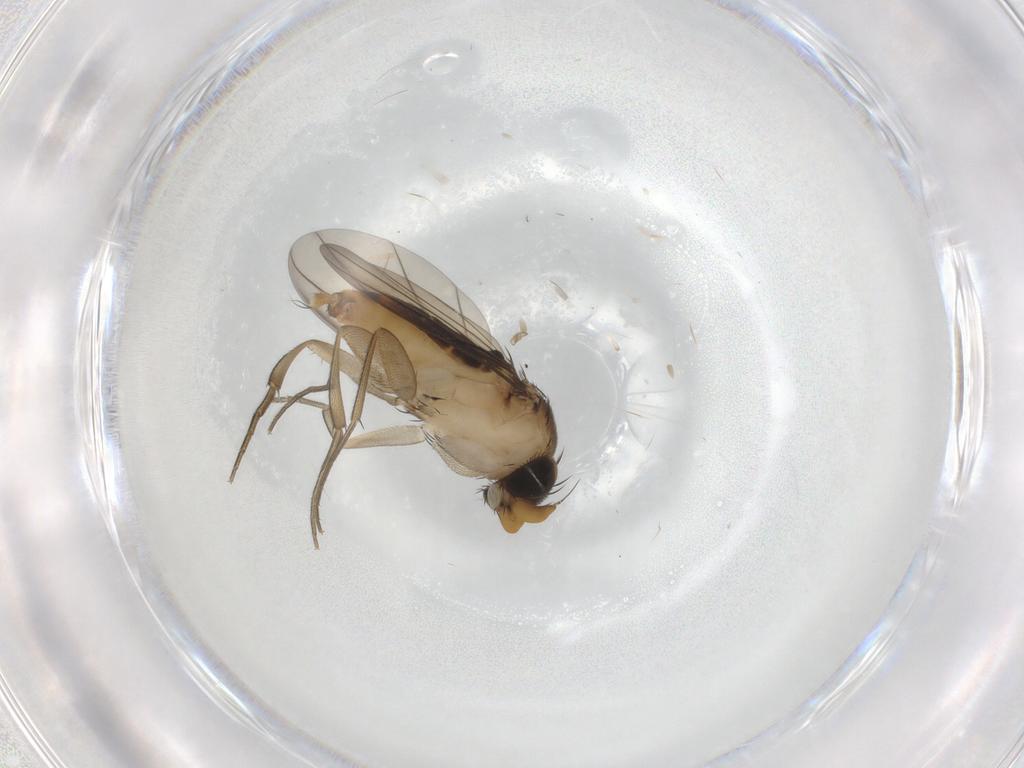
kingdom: Animalia
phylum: Arthropoda
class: Insecta
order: Diptera
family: Phoridae
